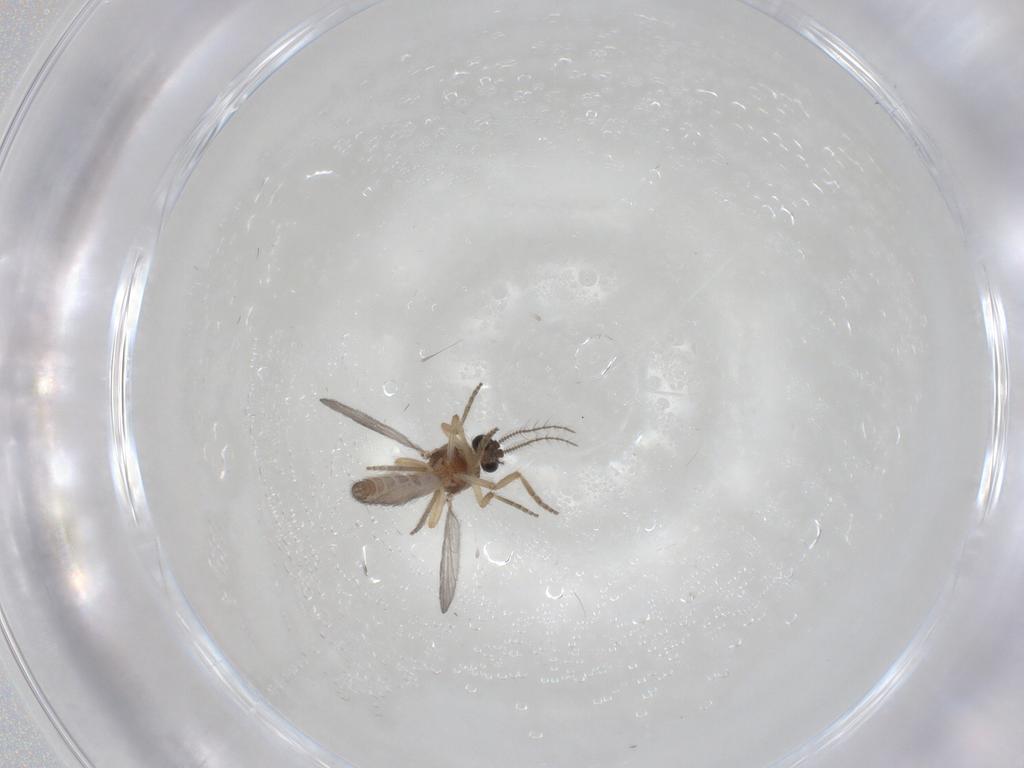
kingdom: Animalia
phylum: Arthropoda
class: Insecta
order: Diptera
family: Ceratopogonidae
